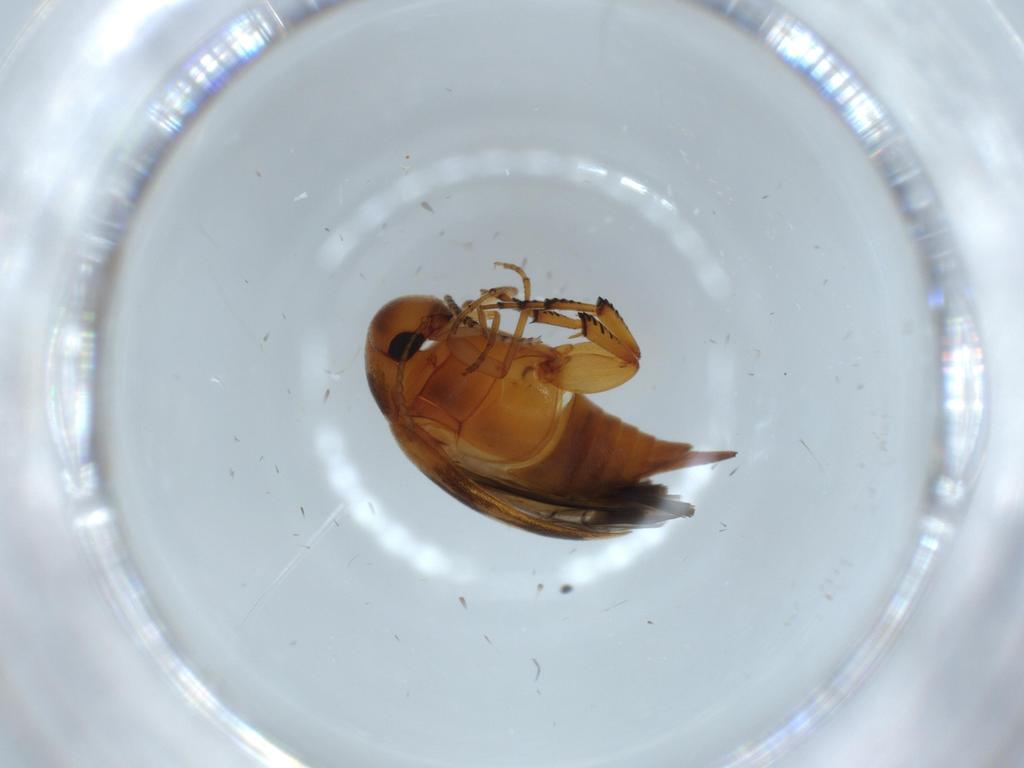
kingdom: Animalia
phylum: Arthropoda
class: Insecta
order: Coleoptera
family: Mordellidae
